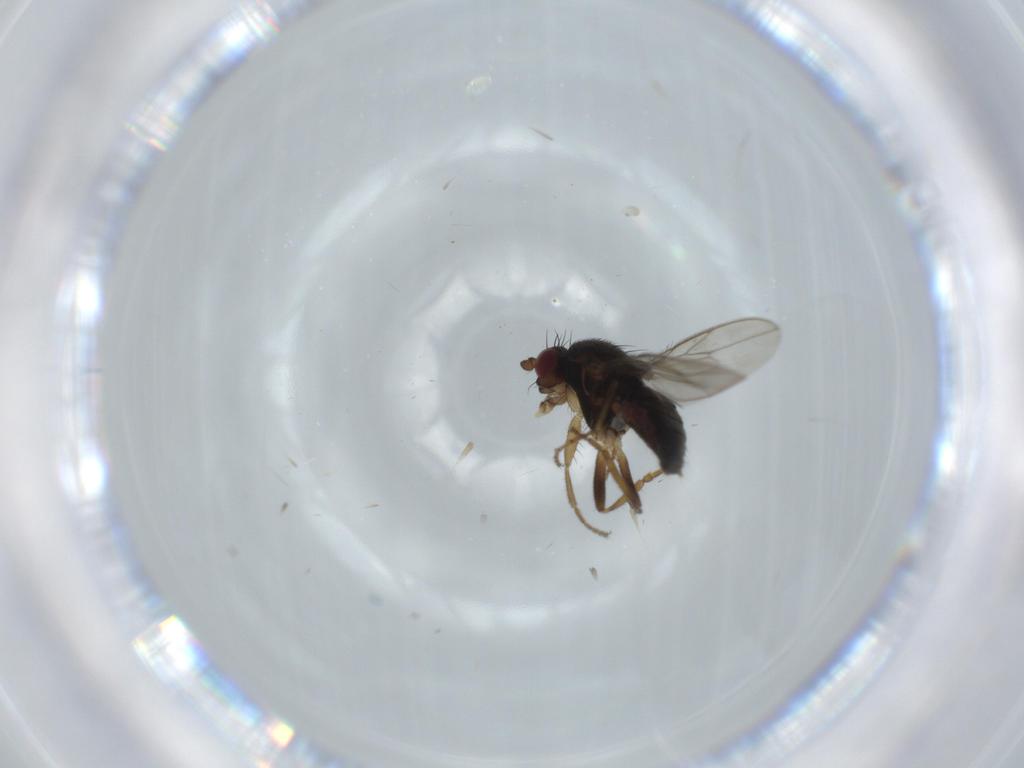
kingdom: Animalia
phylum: Arthropoda
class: Insecta
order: Diptera
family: Sphaeroceridae
